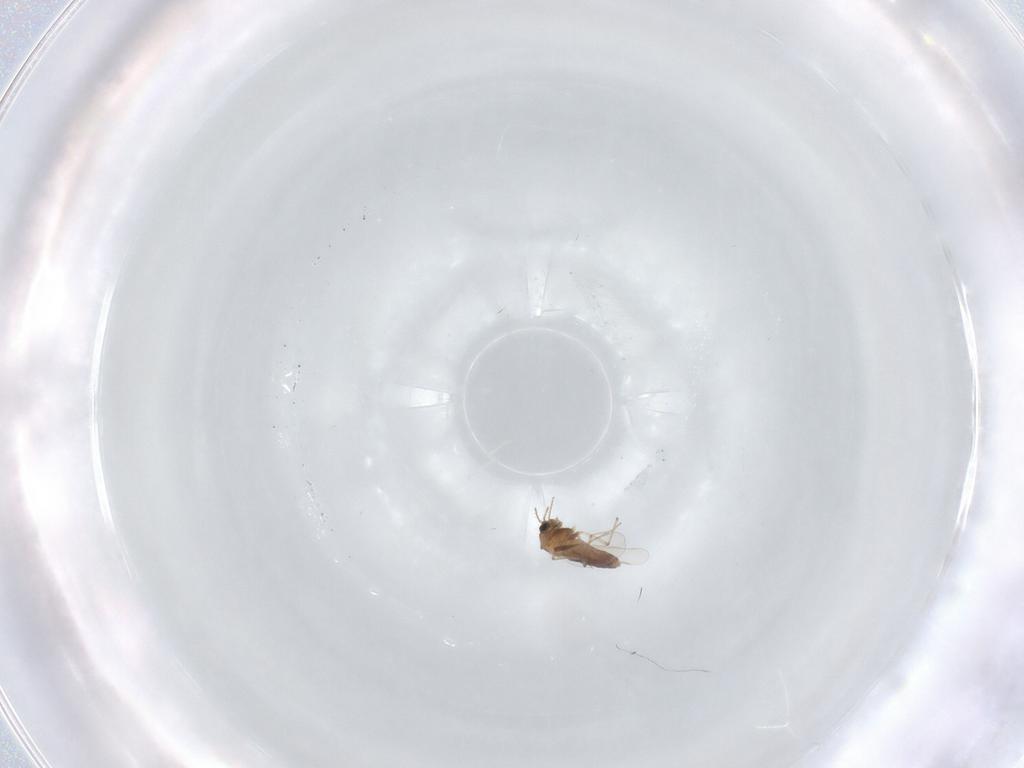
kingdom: Animalia
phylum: Arthropoda
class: Insecta
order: Diptera
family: Chironomidae
